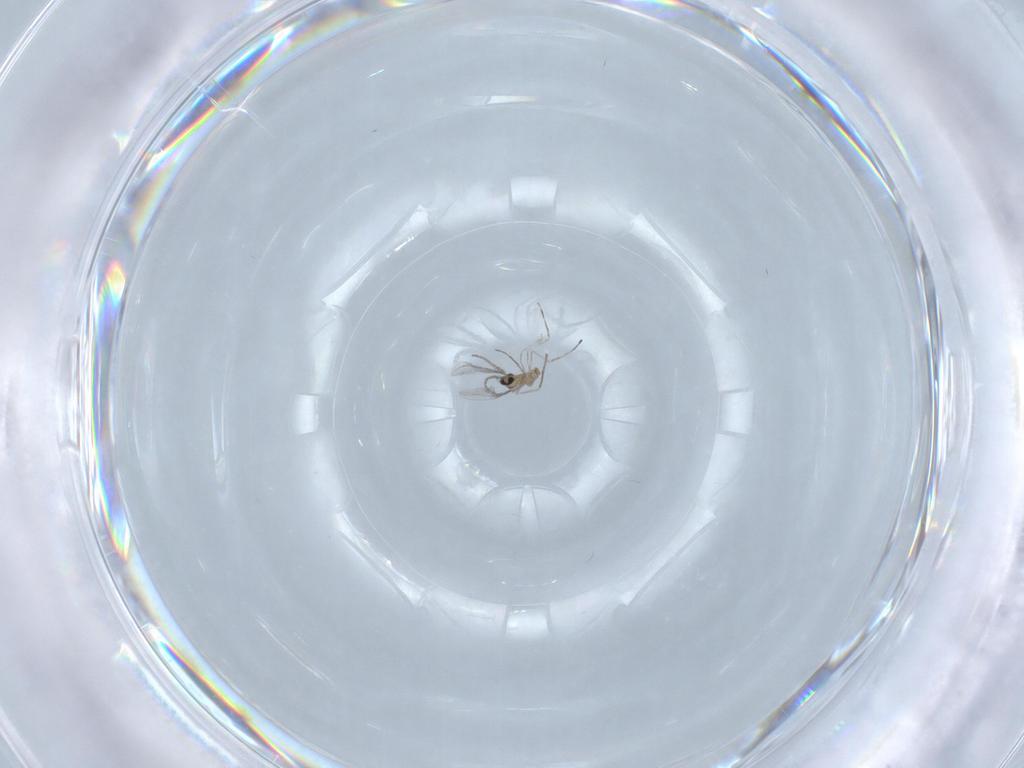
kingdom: Animalia
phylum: Arthropoda
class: Insecta
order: Diptera
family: Cecidomyiidae
